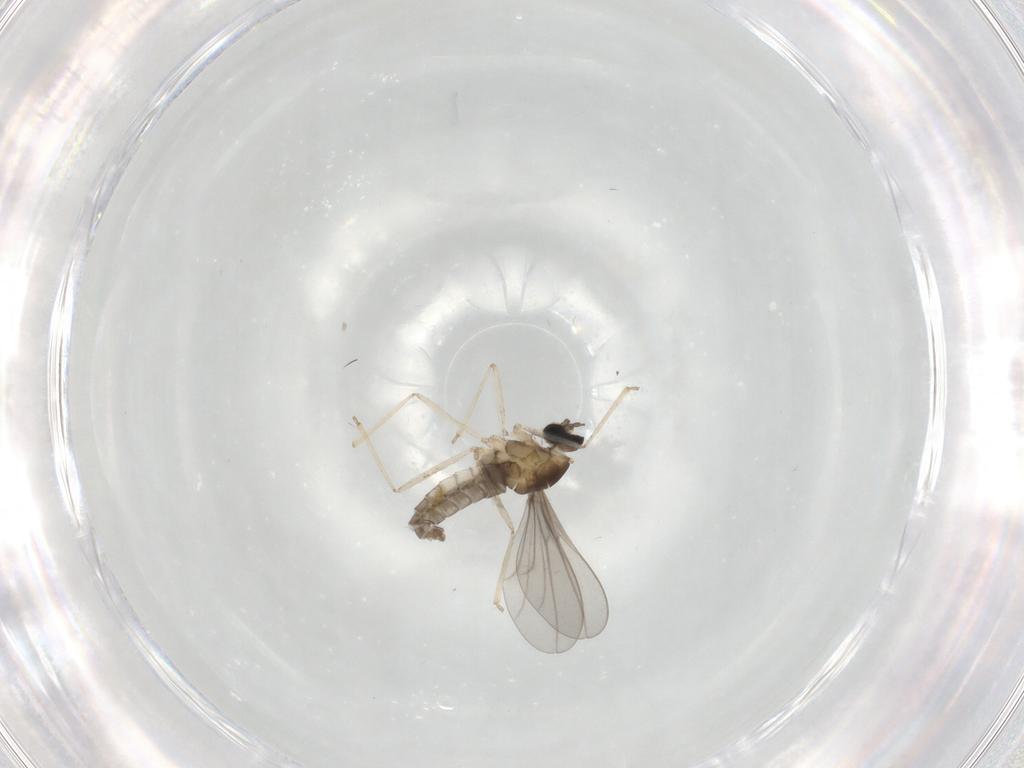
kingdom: Animalia
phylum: Arthropoda
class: Insecta
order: Diptera
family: Cecidomyiidae
